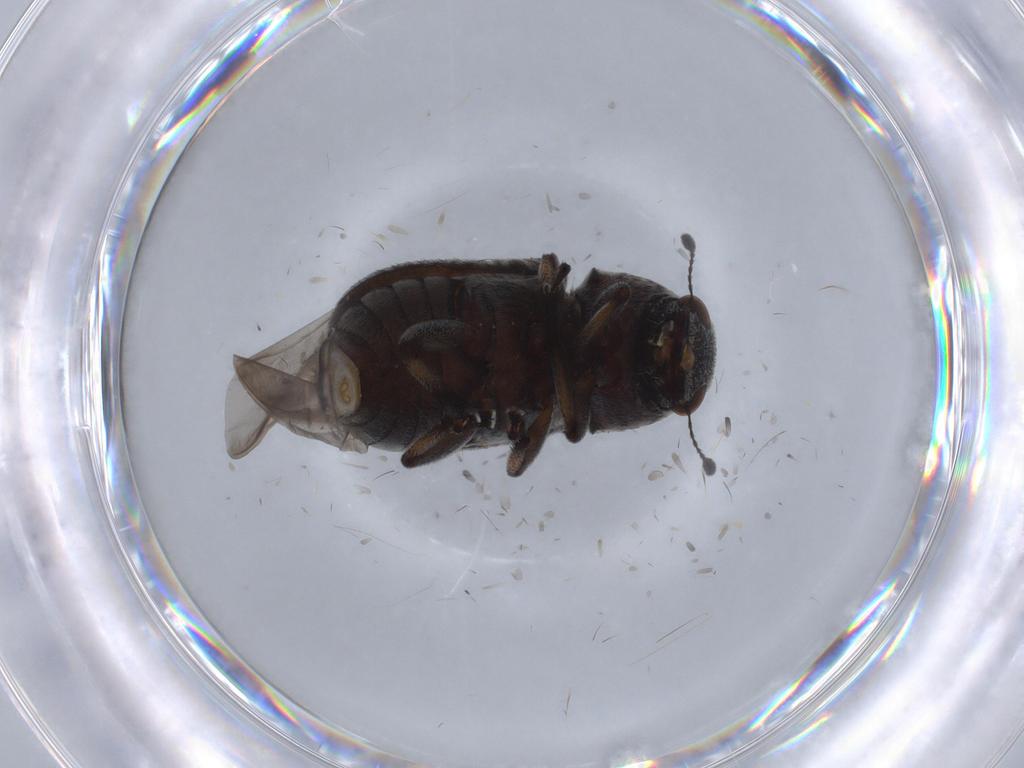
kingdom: Animalia
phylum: Arthropoda
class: Insecta
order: Coleoptera
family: Anthribidae
